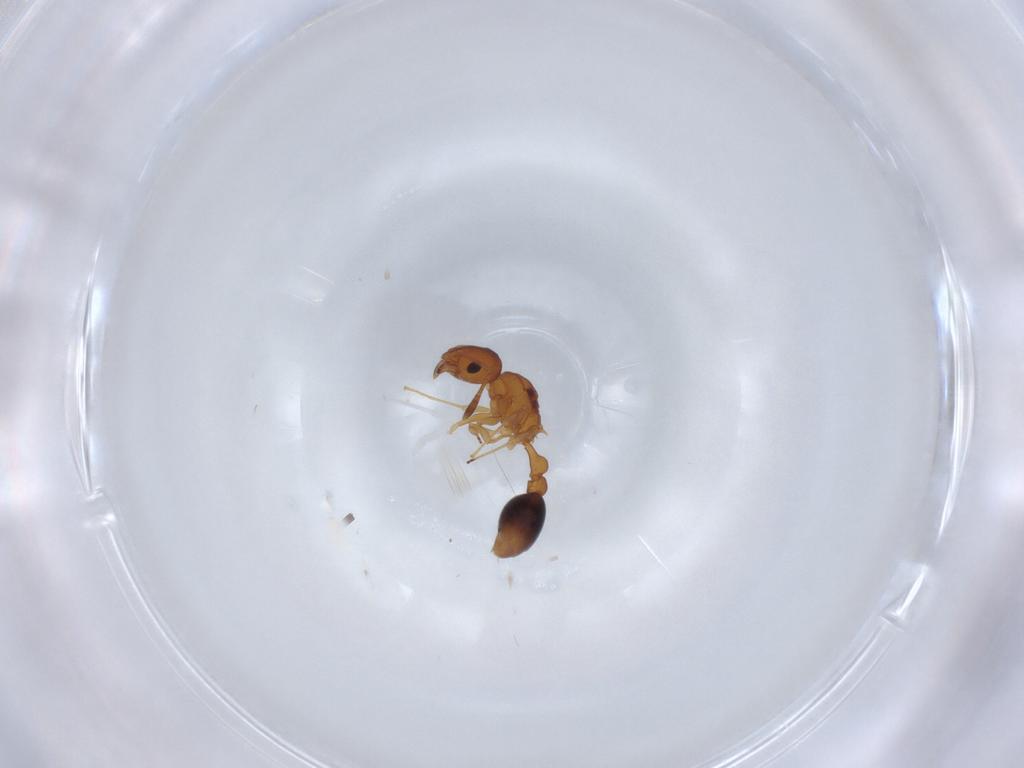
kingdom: Animalia
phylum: Arthropoda
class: Insecta
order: Hymenoptera
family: Formicidae
